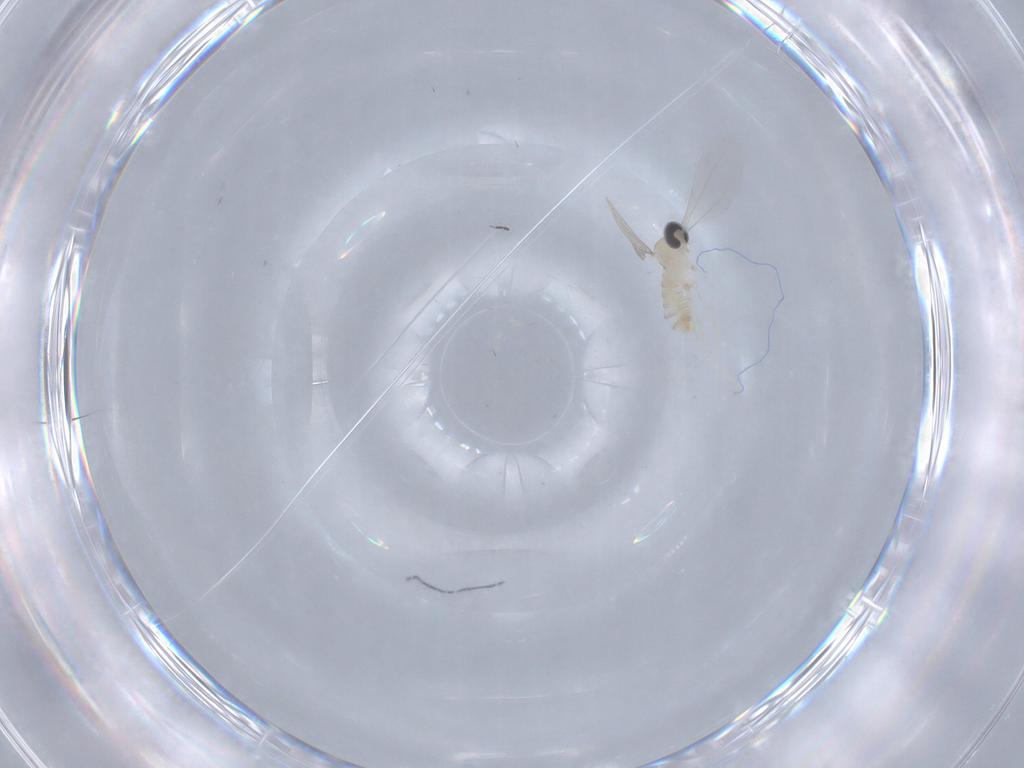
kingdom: Animalia
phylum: Arthropoda
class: Insecta
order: Diptera
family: Cecidomyiidae
